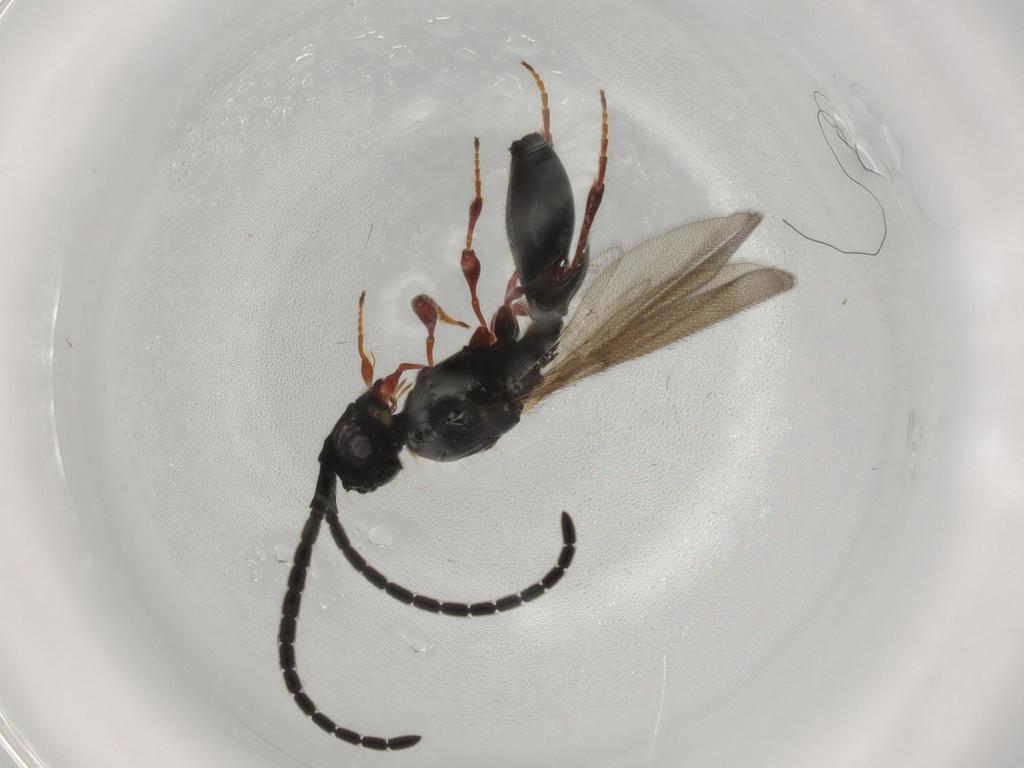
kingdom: Animalia
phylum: Arthropoda
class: Insecta
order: Hymenoptera
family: Diapriidae
